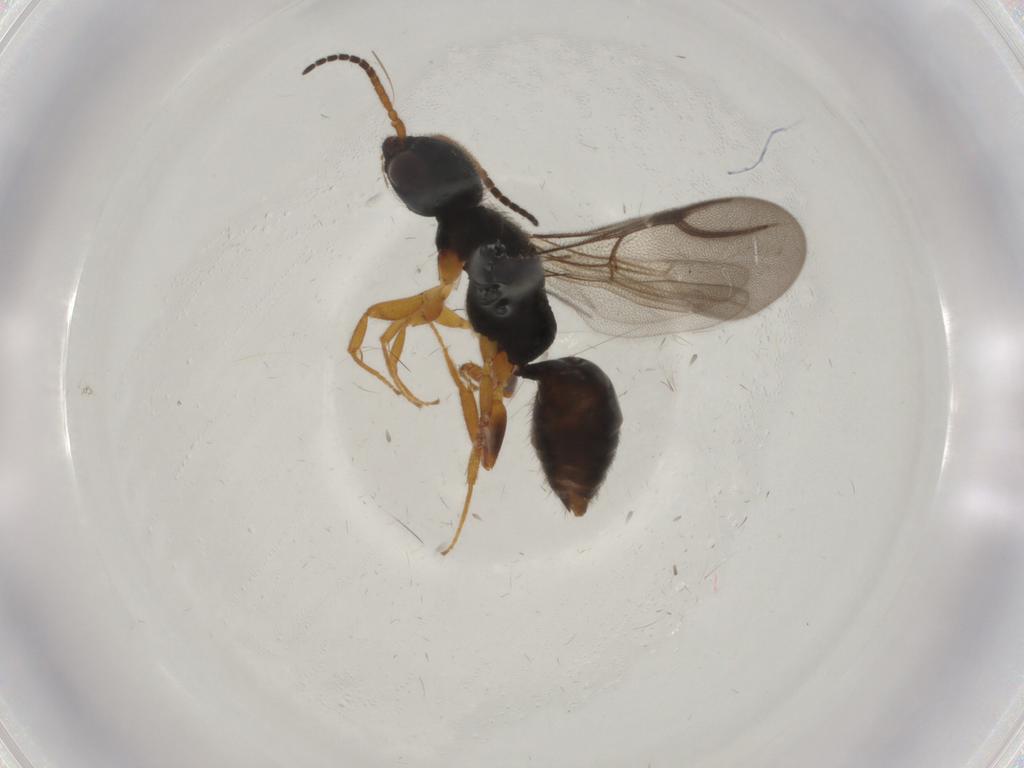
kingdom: Animalia
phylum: Arthropoda
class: Insecta
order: Hymenoptera
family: Bethylidae
